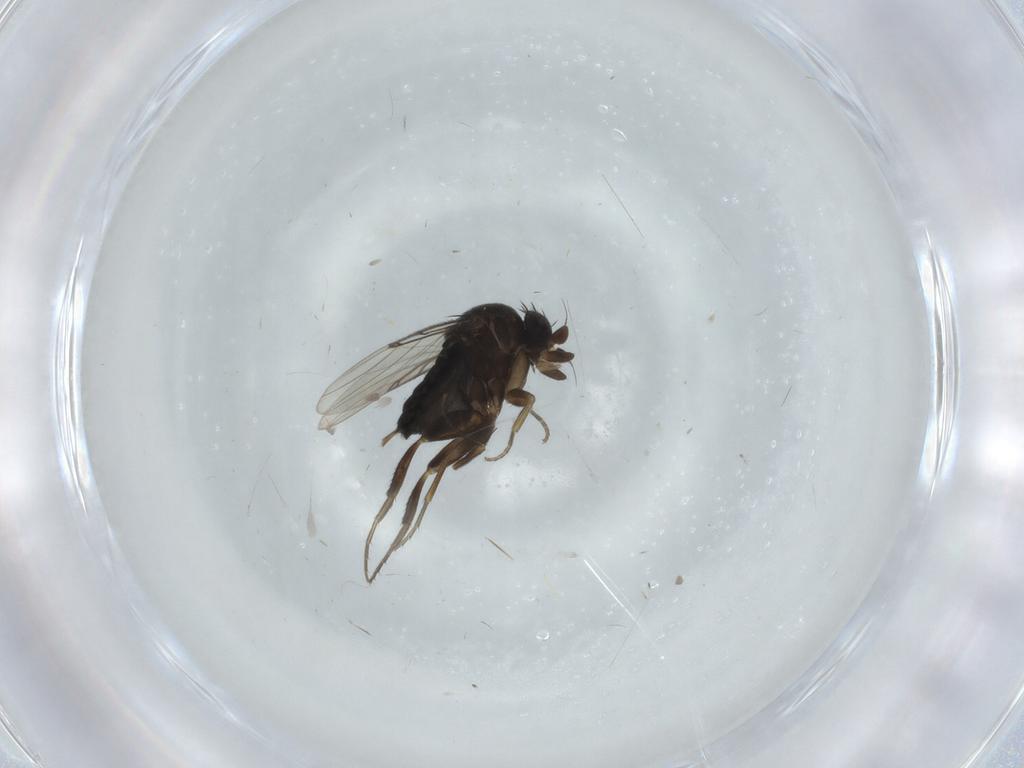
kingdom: Animalia
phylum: Arthropoda
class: Insecta
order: Diptera
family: Phoridae
